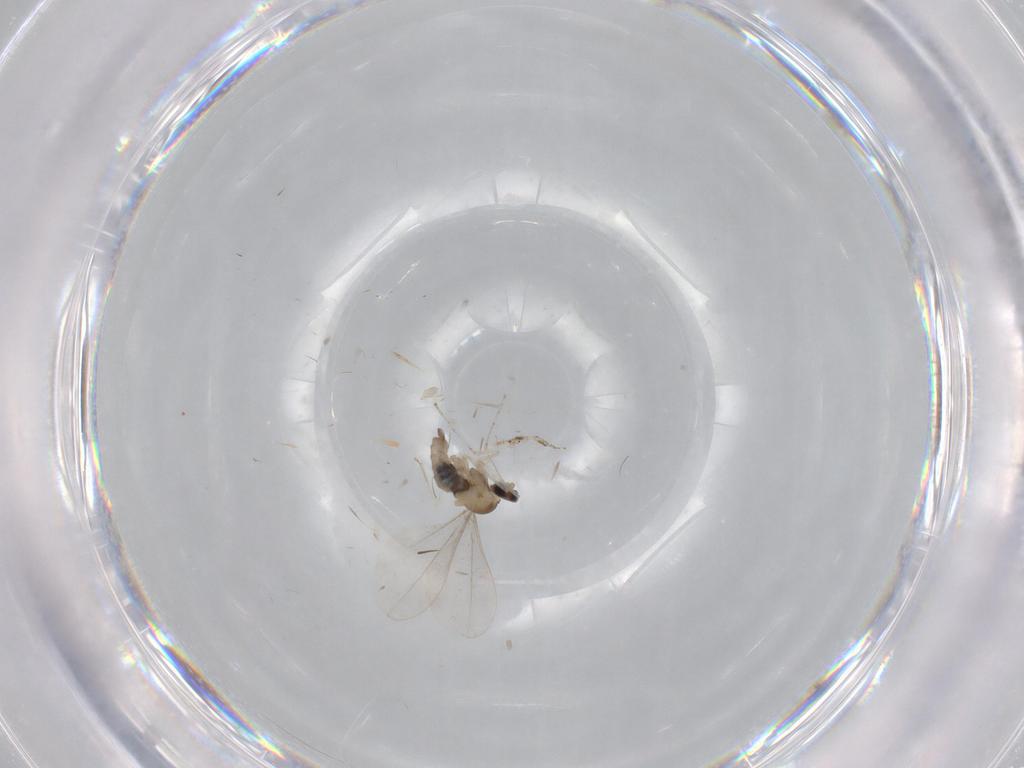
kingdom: Animalia
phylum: Arthropoda
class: Insecta
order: Diptera
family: Cecidomyiidae
